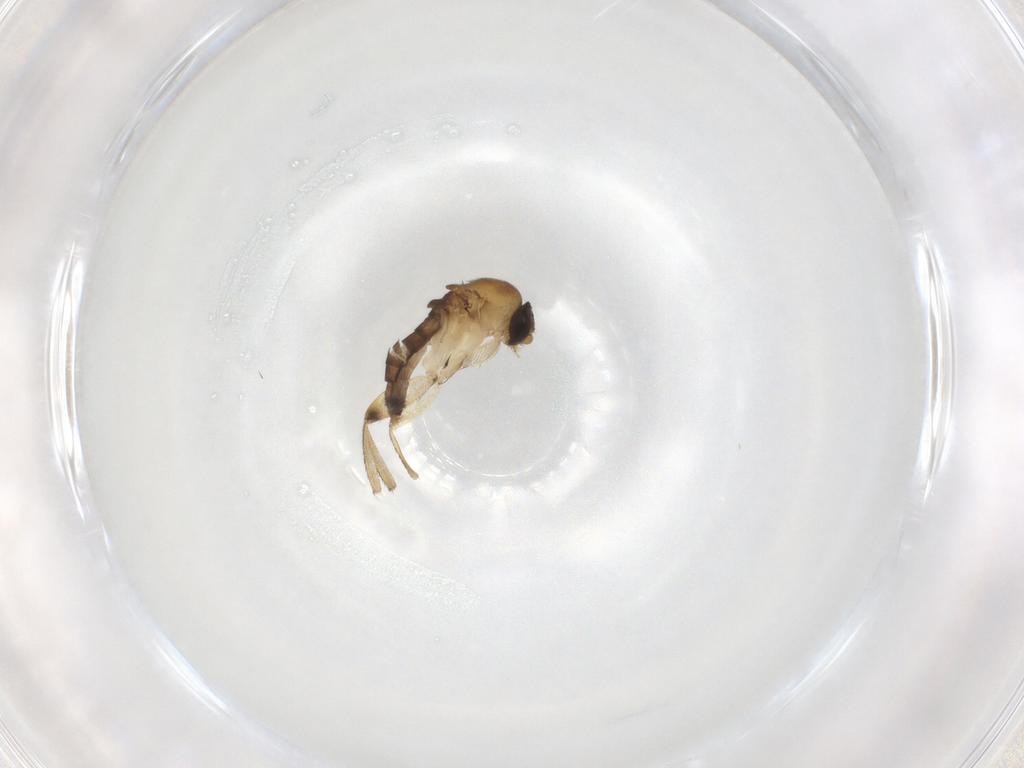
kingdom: Animalia
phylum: Arthropoda
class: Insecta
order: Diptera
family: Phoridae
